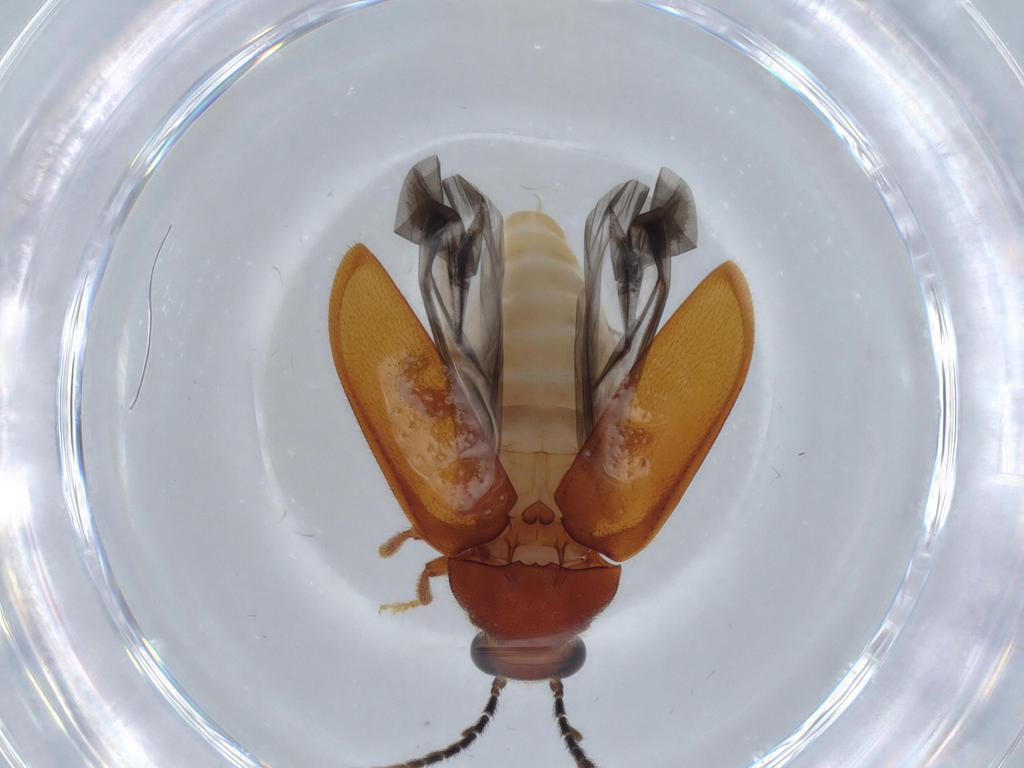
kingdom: Animalia
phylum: Arthropoda
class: Insecta
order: Coleoptera
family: Ptilodactylidae
